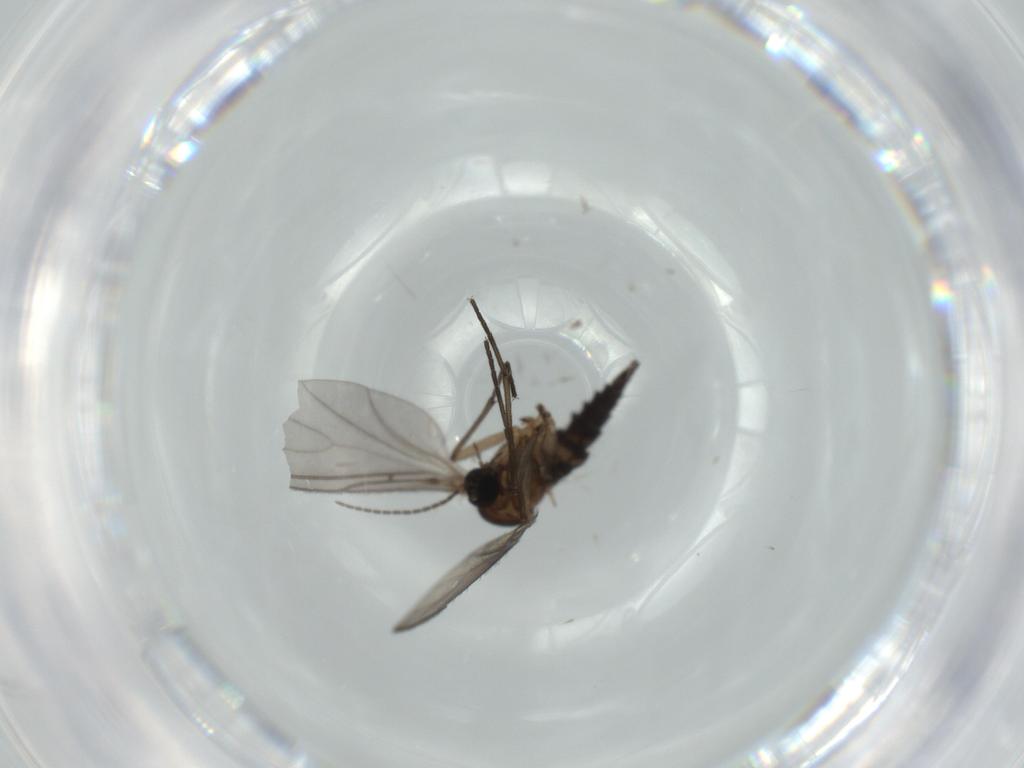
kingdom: Animalia
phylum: Arthropoda
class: Insecta
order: Diptera
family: Sciaridae
